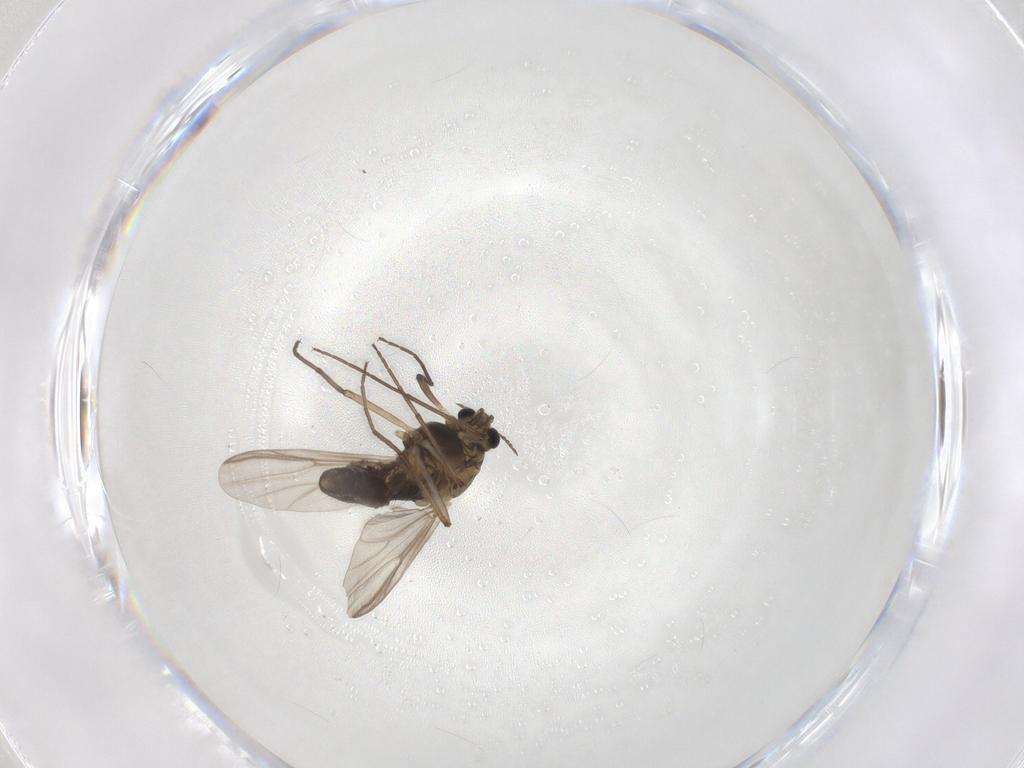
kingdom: Animalia
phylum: Arthropoda
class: Insecta
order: Diptera
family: Chironomidae
